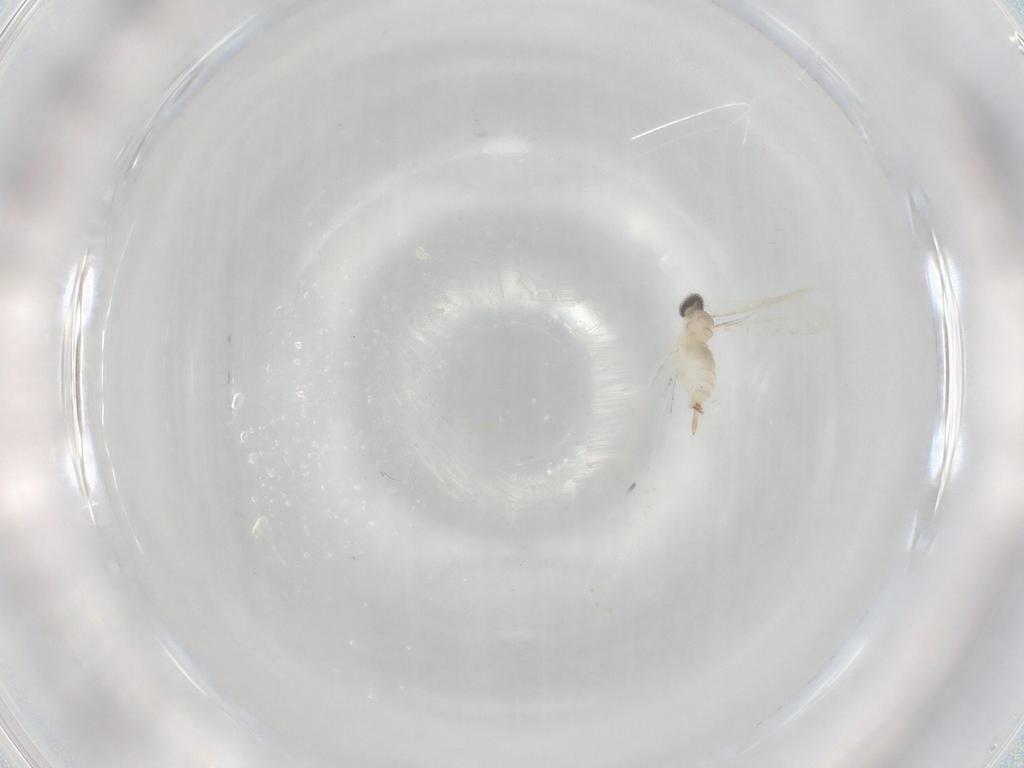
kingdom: Animalia
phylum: Arthropoda
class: Insecta
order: Diptera
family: Cecidomyiidae
